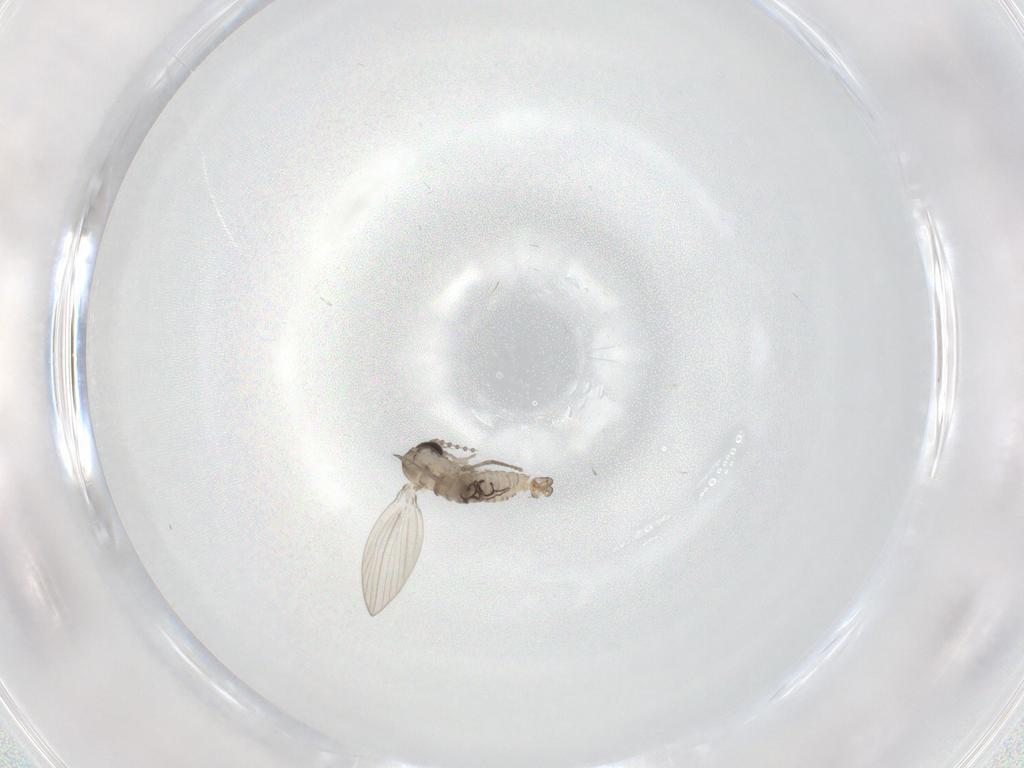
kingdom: Animalia
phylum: Arthropoda
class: Insecta
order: Diptera
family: Psychodidae
